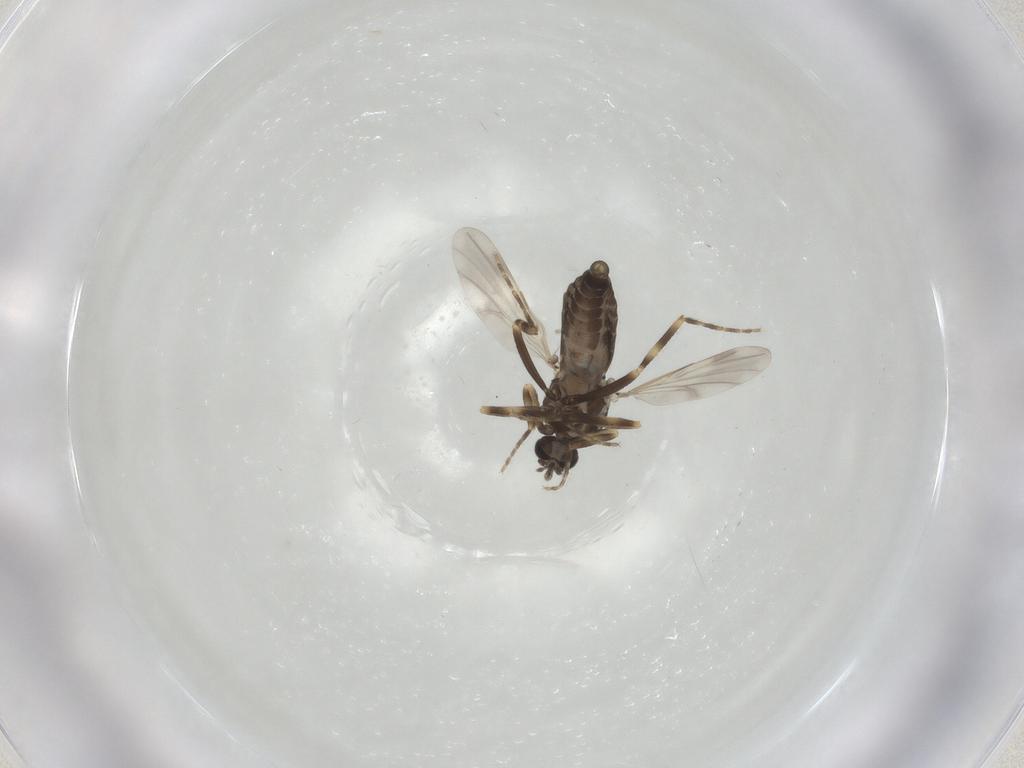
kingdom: Animalia
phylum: Arthropoda
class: Insecta
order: Diptera
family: Ceratopogonidae
